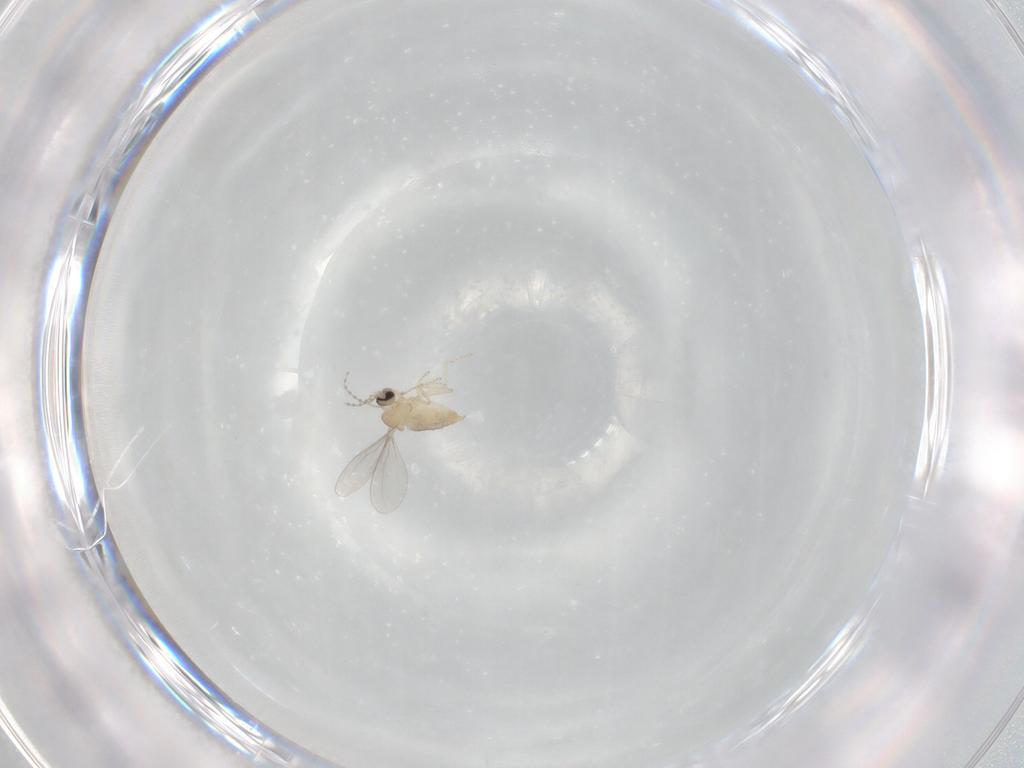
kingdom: Animalia
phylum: Arthropoda
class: Insecta
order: Diptera
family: Cecidomyiidae
